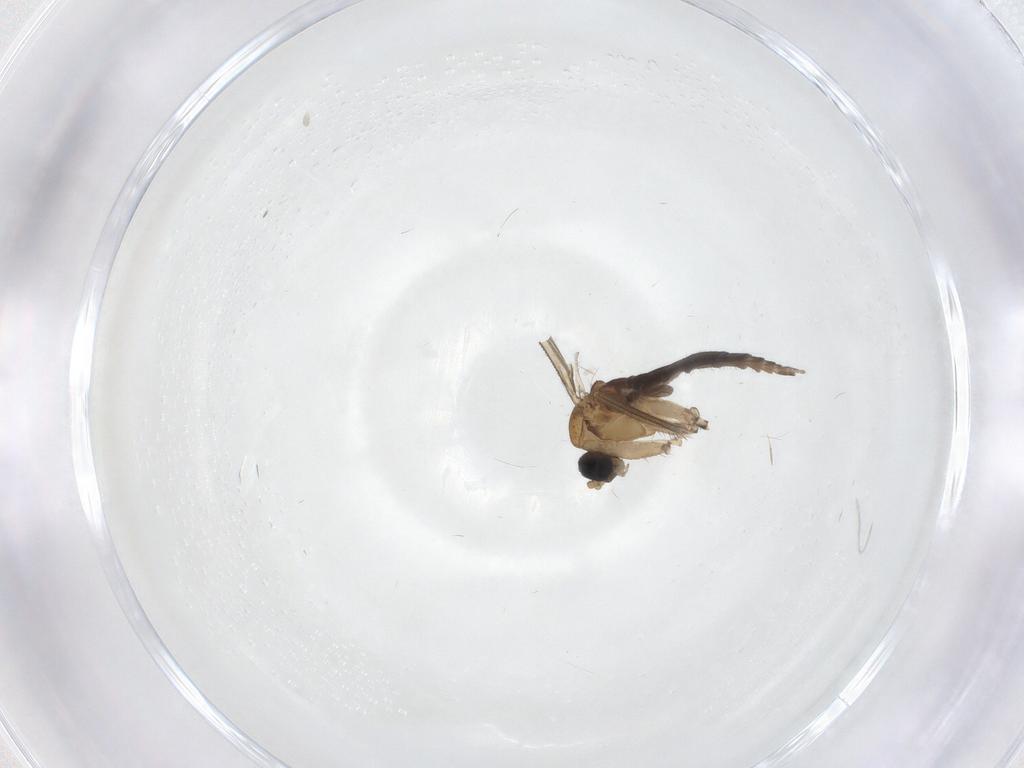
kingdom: Animalia
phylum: Arthropoda
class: Insecta
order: Diptera
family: Sciaridae
